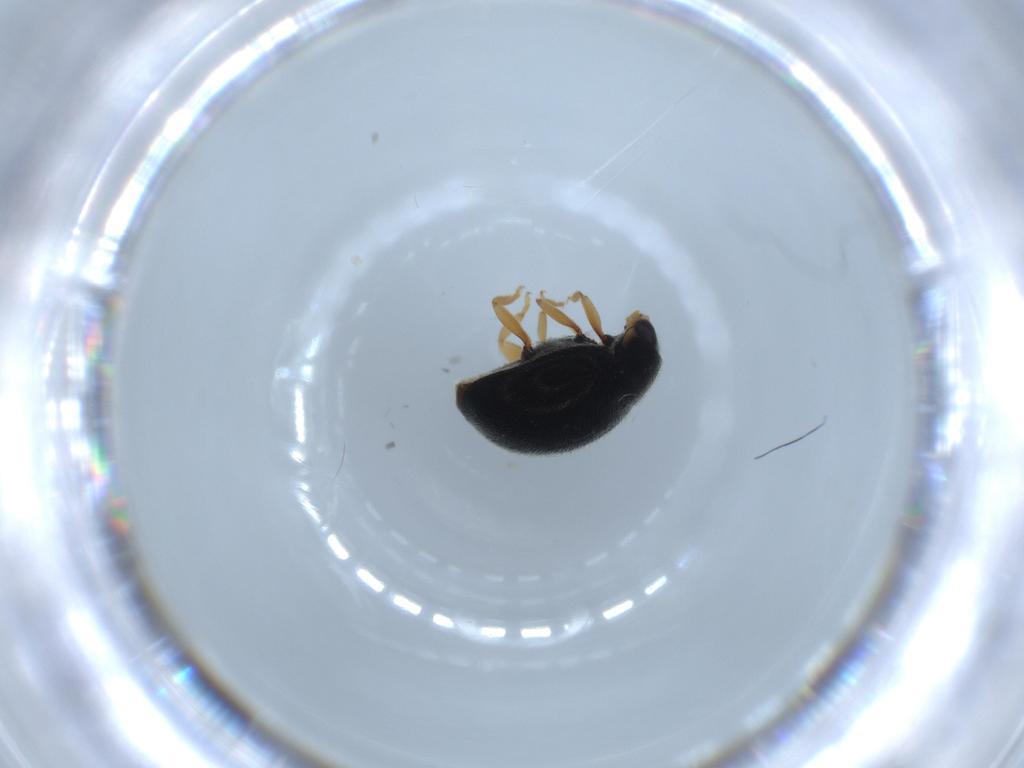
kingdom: Animalia
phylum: Arthropoda
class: Insecta
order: Coleoptera
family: Coccinellidae
